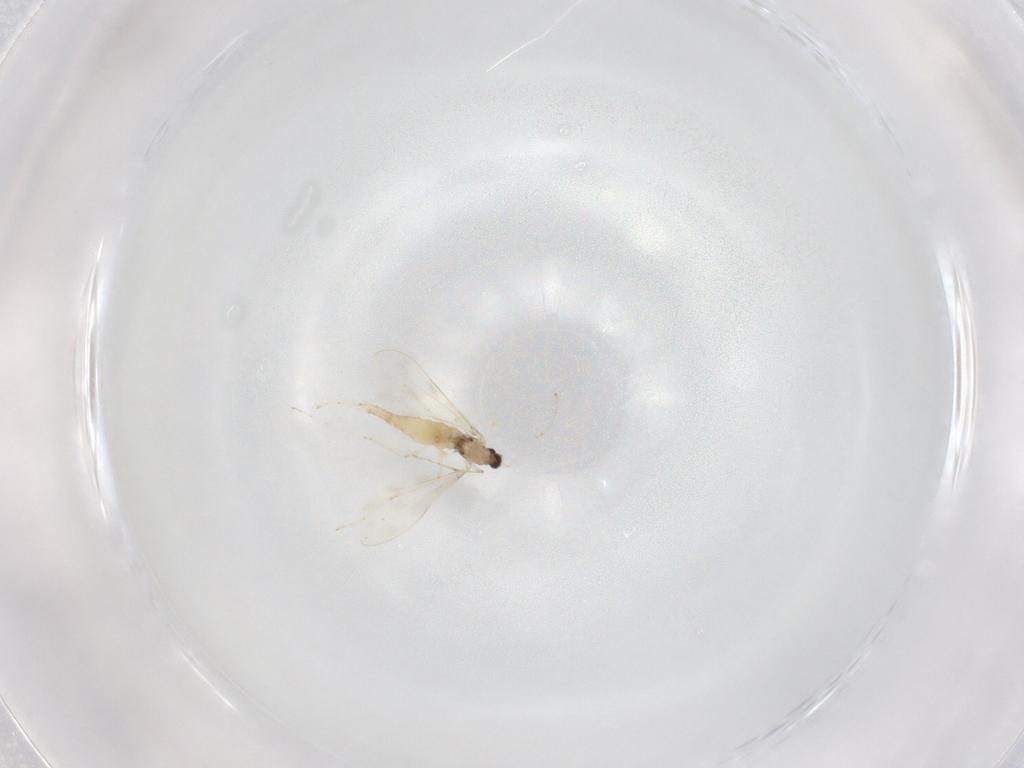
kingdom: Animalia
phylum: Arthropoda
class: Insecta
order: Diptera
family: Cecidomyiidae
